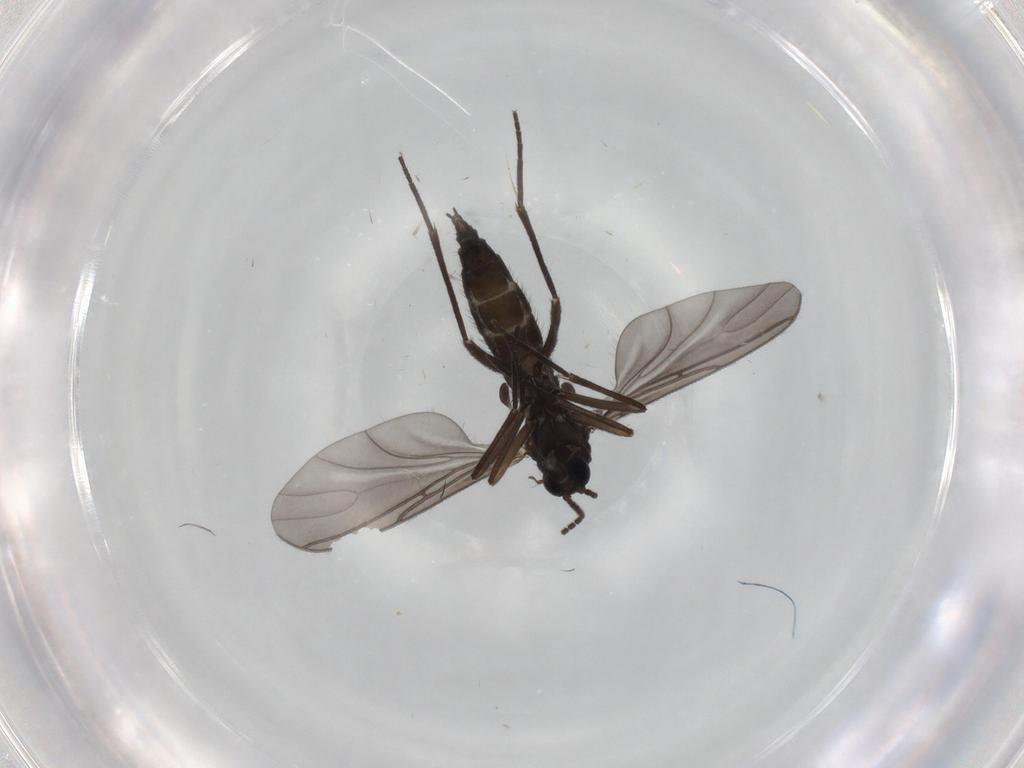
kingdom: Animalia
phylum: Arthropoda
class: Insecta
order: Diptera
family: Sciaridae
